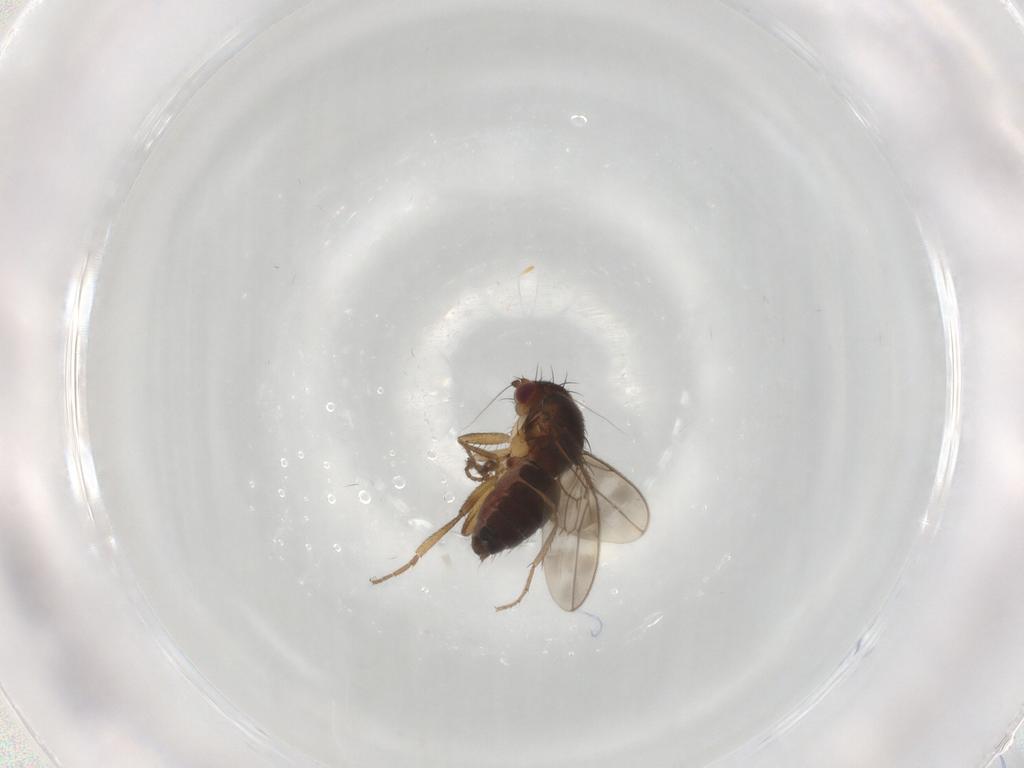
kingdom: Animalia
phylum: Arthropoda
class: Insecta
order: Diptera
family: Sphaeroceridae
